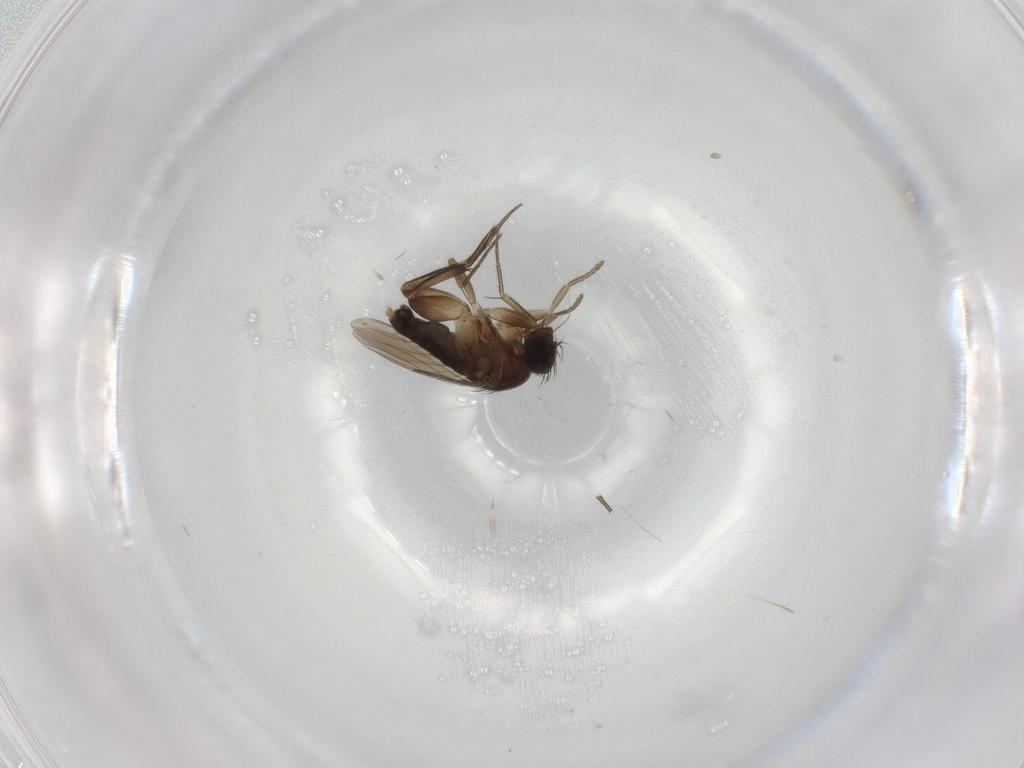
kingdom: Animalia
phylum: Arthropoda
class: Insecta
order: Diptera
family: Phoridae
